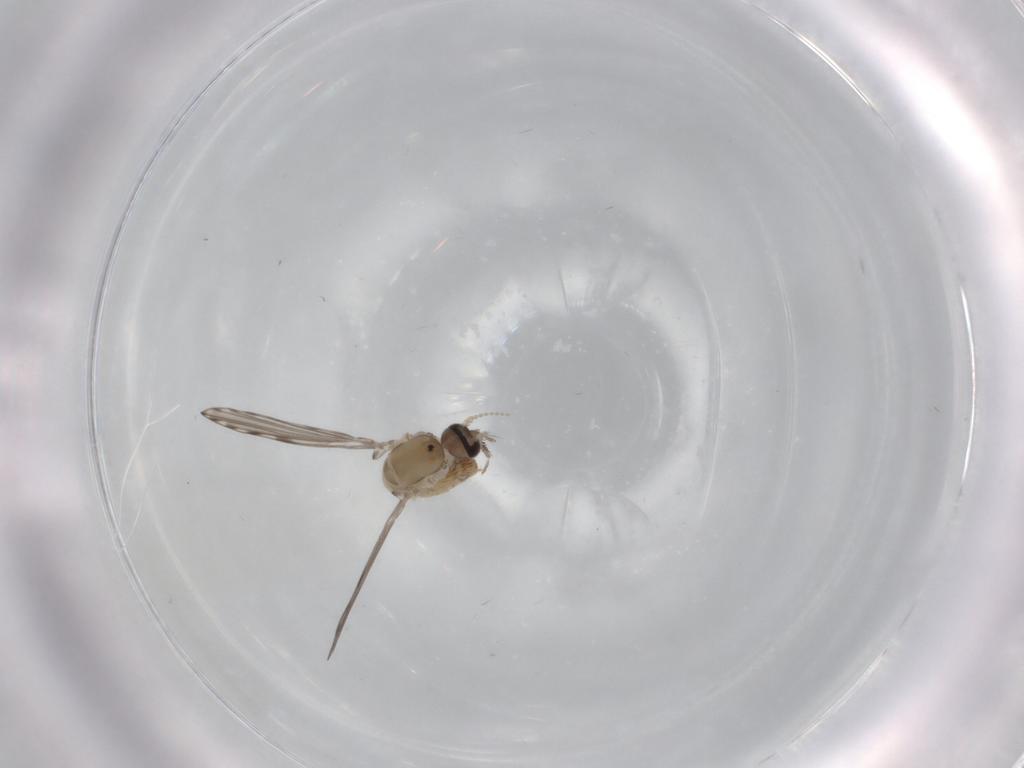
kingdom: Animalia
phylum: Arthropoda
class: Insecta
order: Diptera
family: Psychodidae
